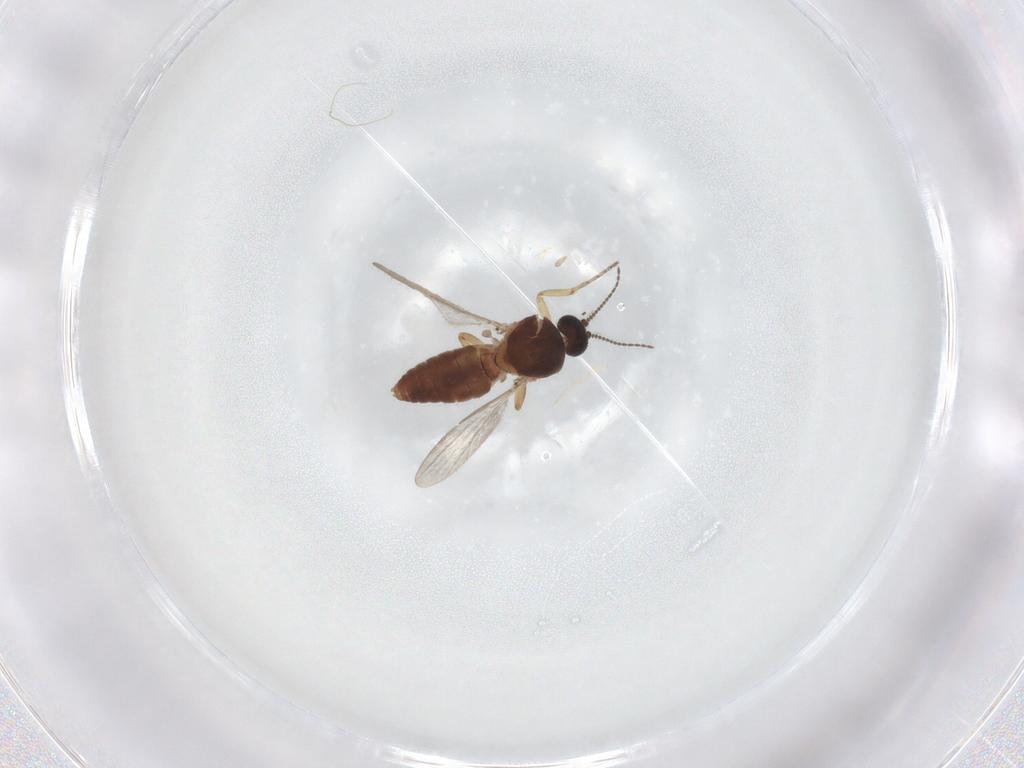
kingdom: Animalia
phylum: Arthropoda
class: Insecta
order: Diptera
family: Ceratopogonidae
